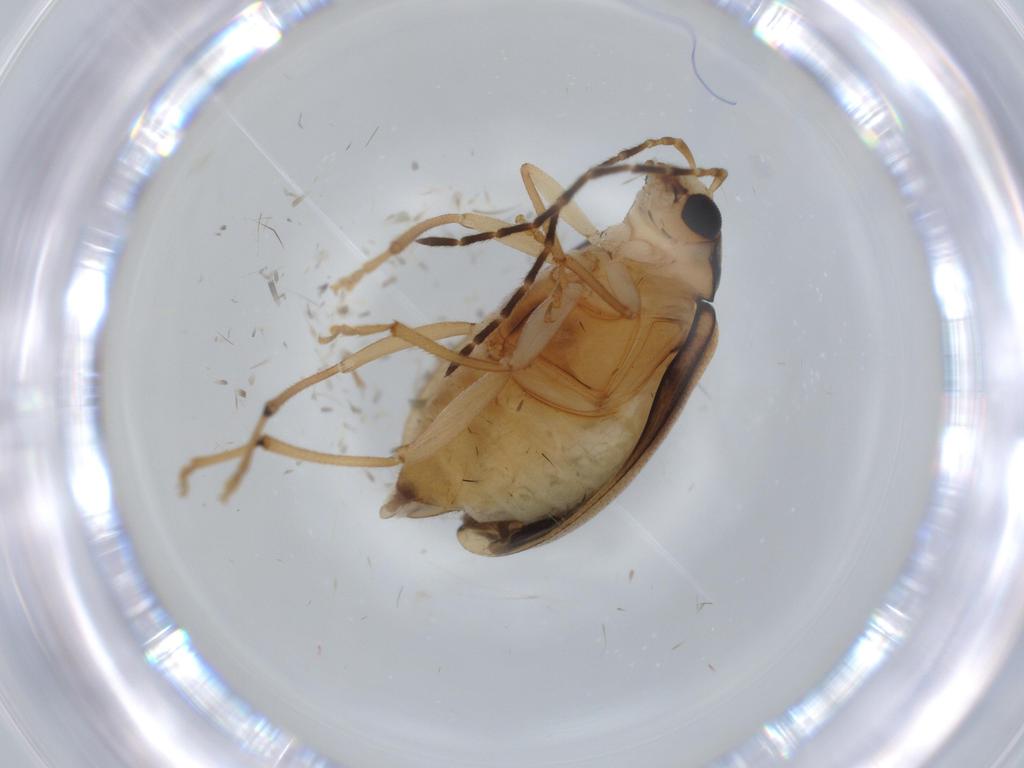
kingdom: Animalia
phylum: Arthropoda
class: Insecta
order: Coleoptera
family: Chrysomelidae
